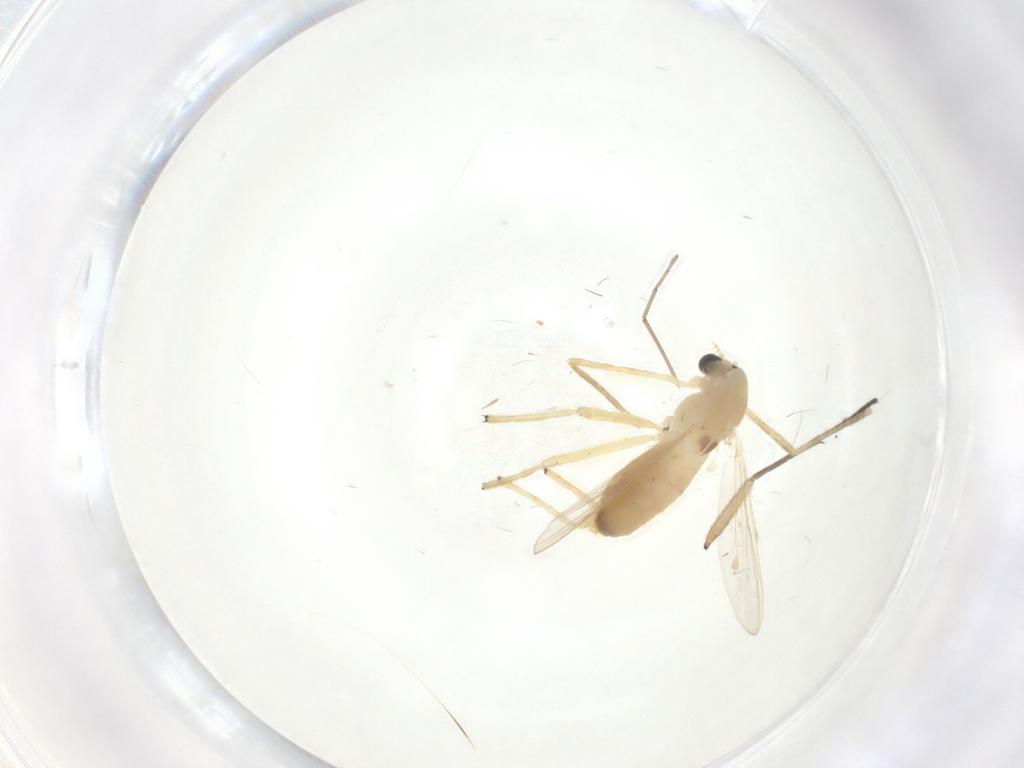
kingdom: Animalia
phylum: Arthropoda
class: Insecta
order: Diptera
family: Chironomidae
